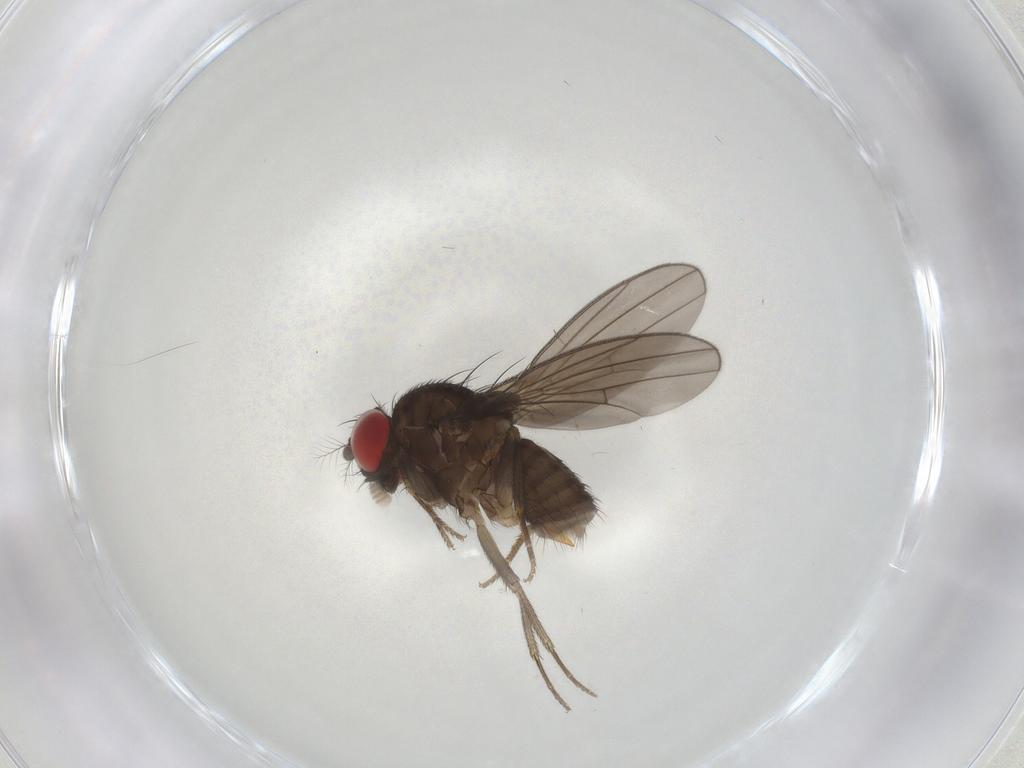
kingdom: Animalia
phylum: Arthropoda
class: Insecta
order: Diptera
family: Drosophilidae
